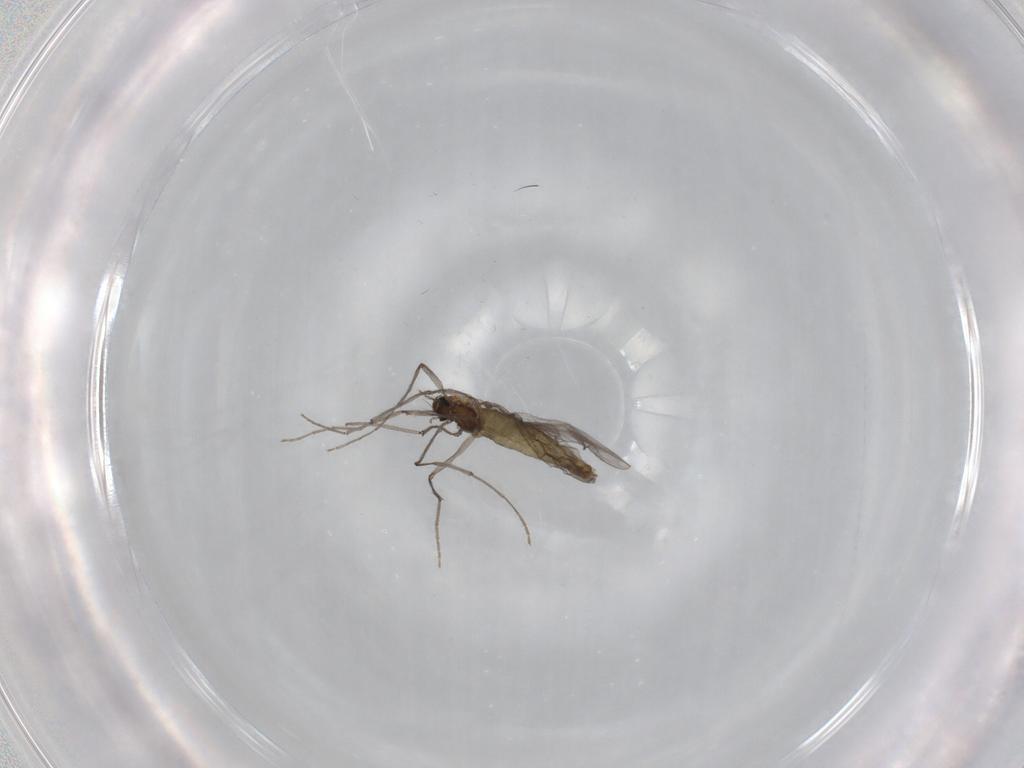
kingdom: Animalia
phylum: Arthropoda
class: Insecta
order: Diptera
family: Chironomidae
